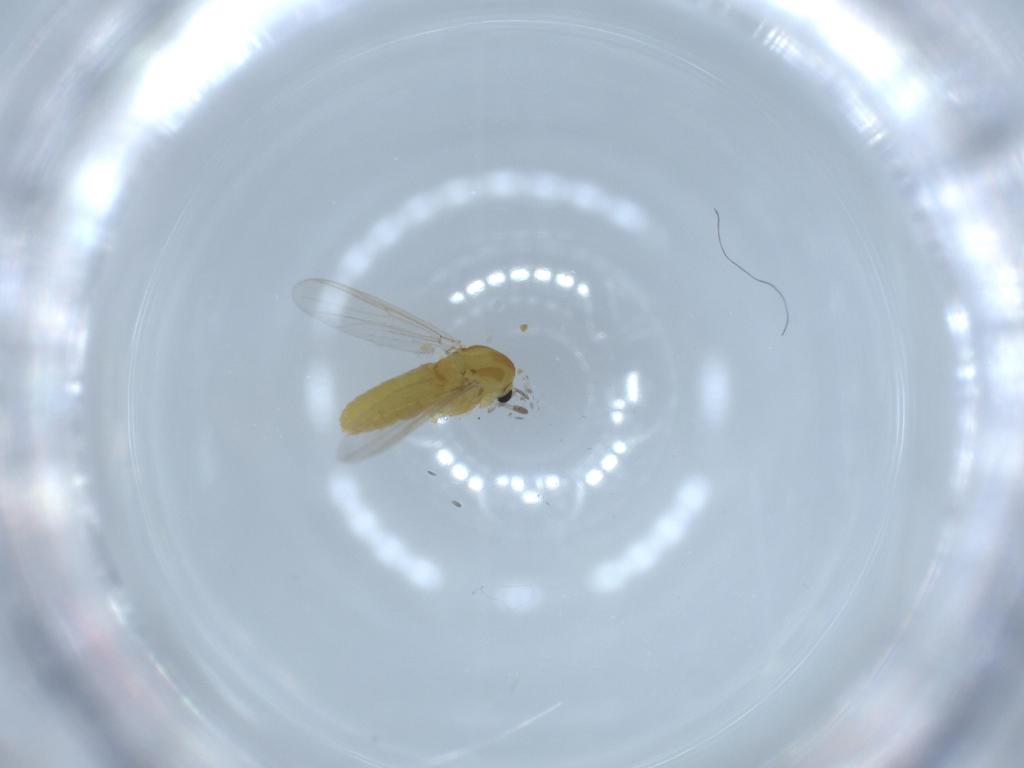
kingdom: Animalia
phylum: Arthropoda
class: Insecta
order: Diptera
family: Chironomidae
